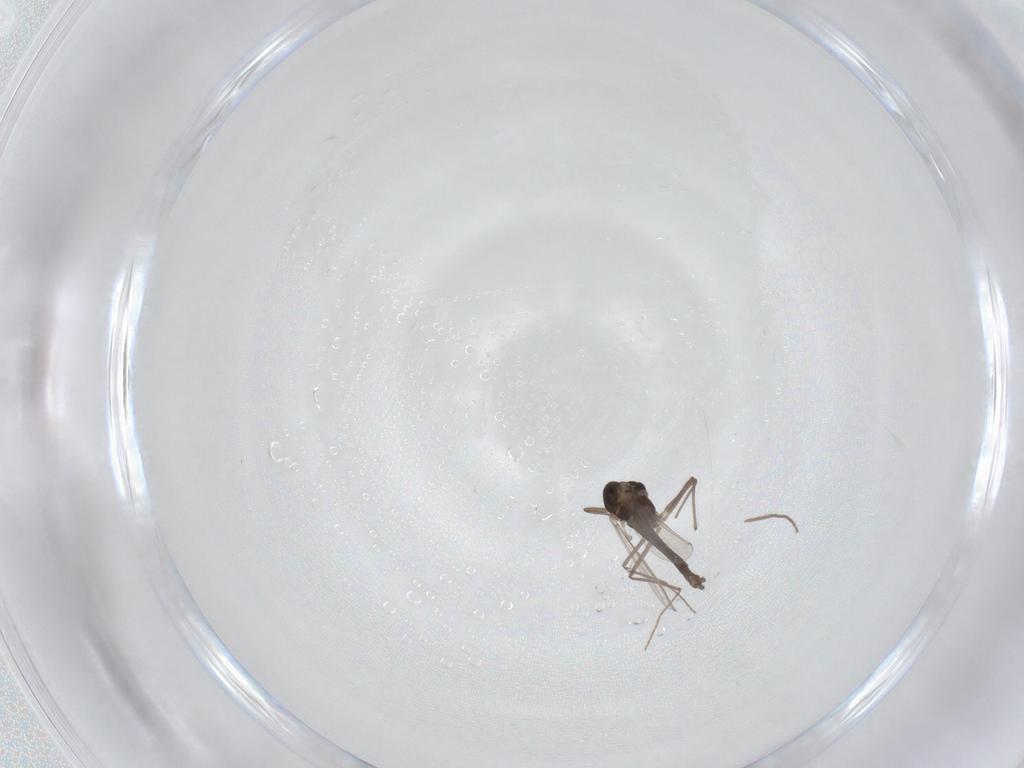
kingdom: Animalia
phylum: Arthropoda
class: Insecta
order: Diptera
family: Chironomidae
